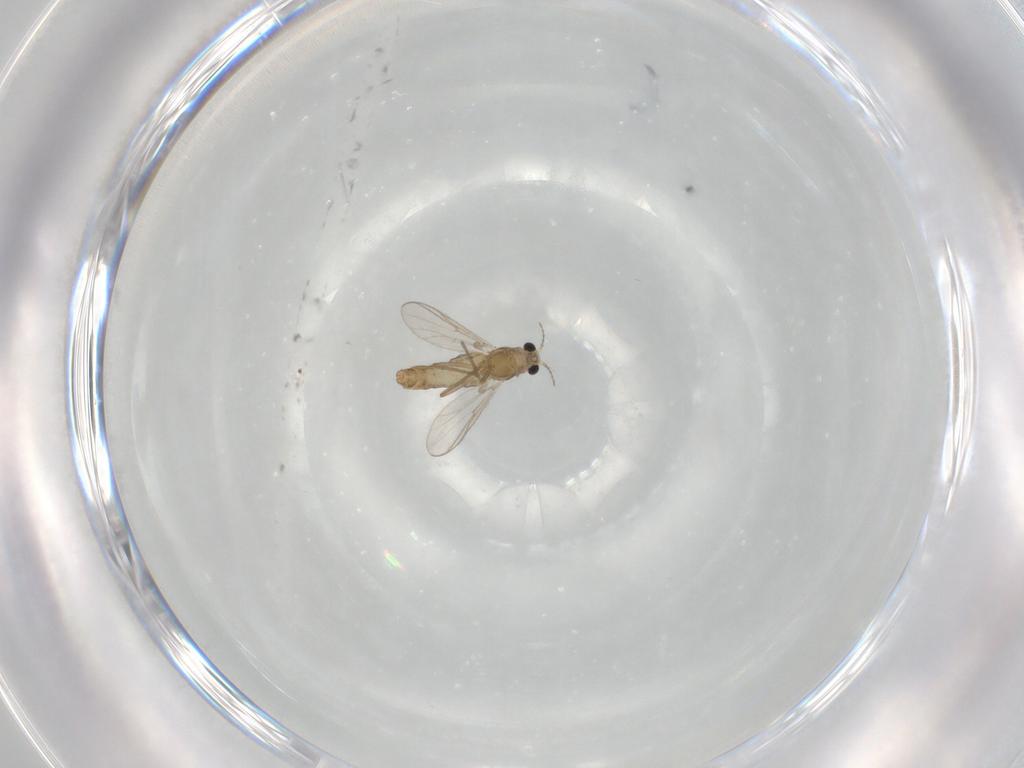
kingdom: Animalia
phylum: Arthropoda
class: Insecta
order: Diptera
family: Chironomidae
